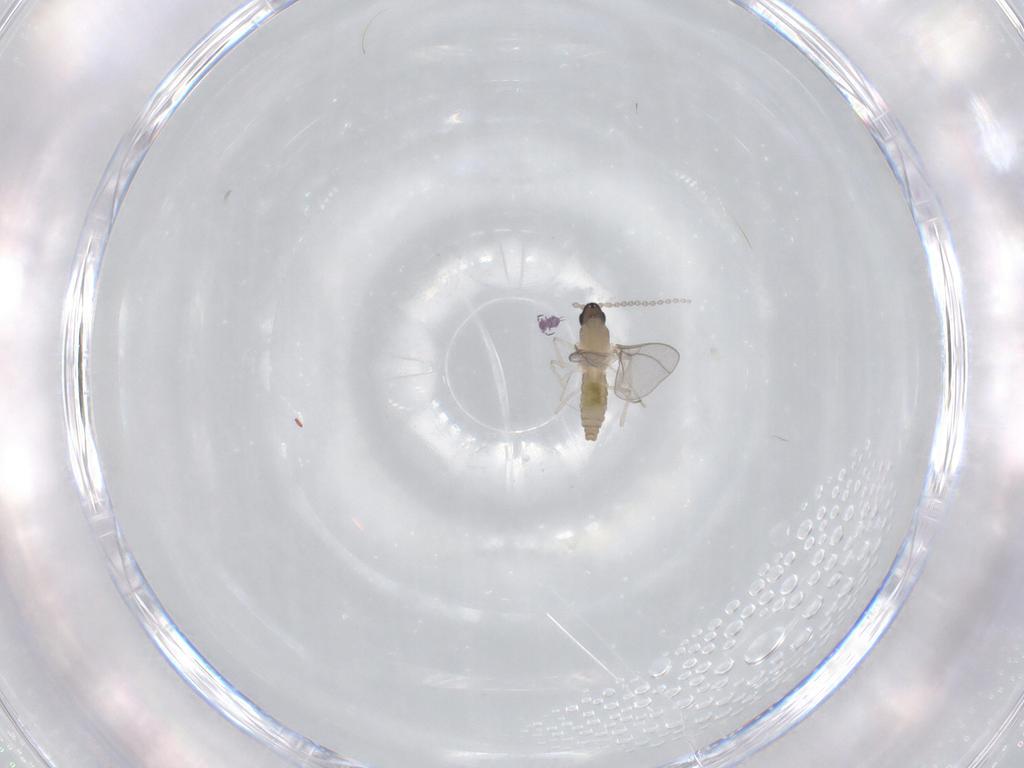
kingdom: Animalia
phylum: Arthropoda
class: Insecta
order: Diptera
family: Cecidomyiidae
